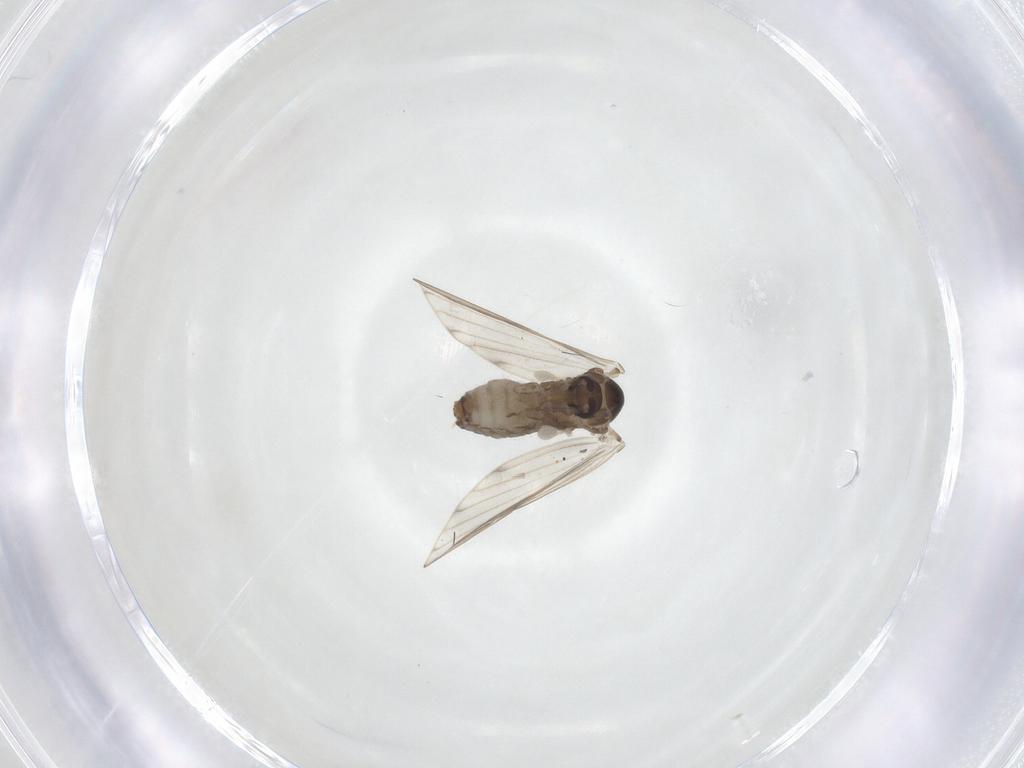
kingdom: Animalia
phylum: Arthropoda
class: Insecta
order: Diptera
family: Psychodidae
